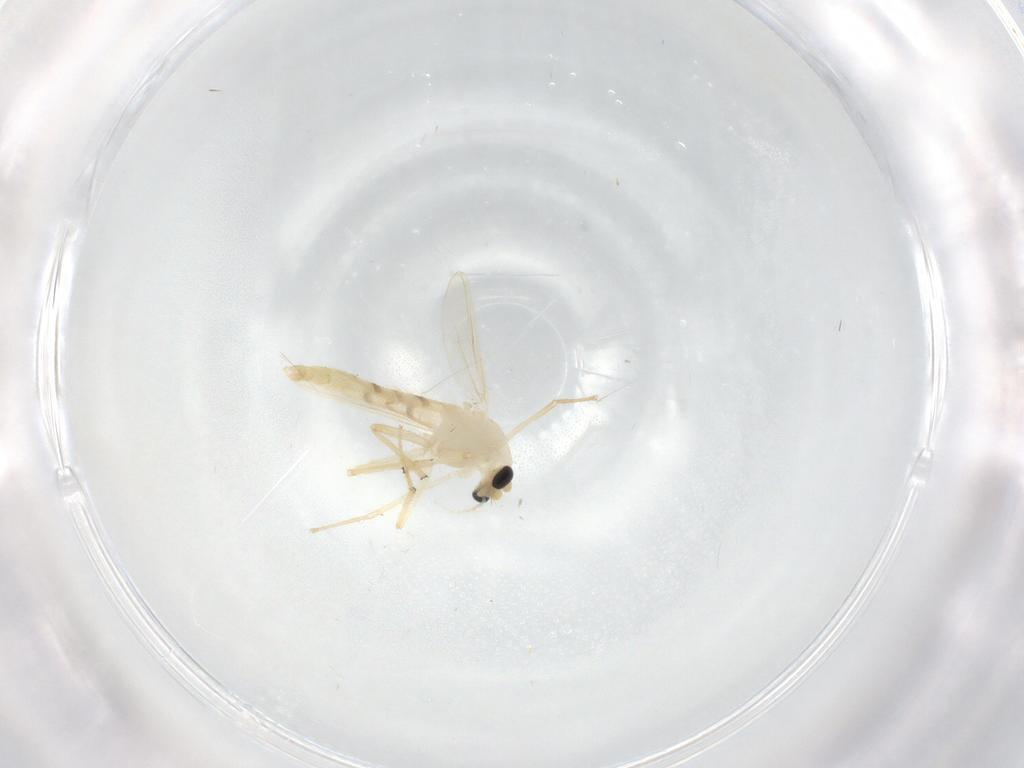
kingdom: Animalia
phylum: Arthropoda
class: Insecta
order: Diptera
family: Chironomidae
